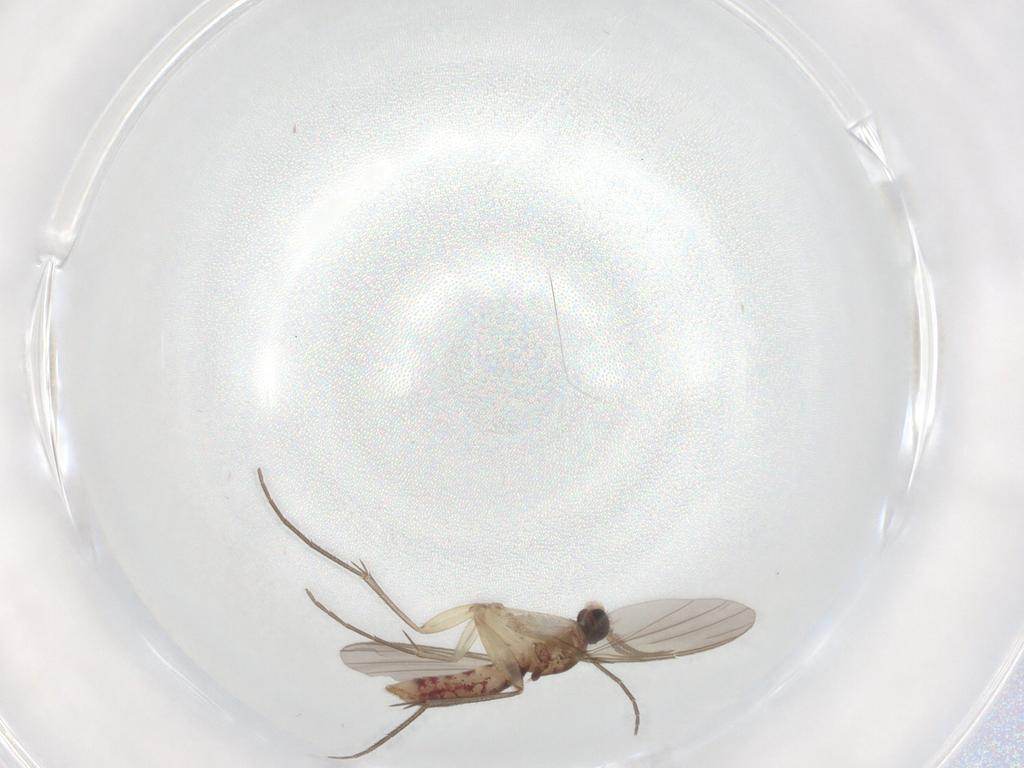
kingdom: Animalia
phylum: Arthropoda
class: Insecta
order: Diptera
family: Mycetophilidae
